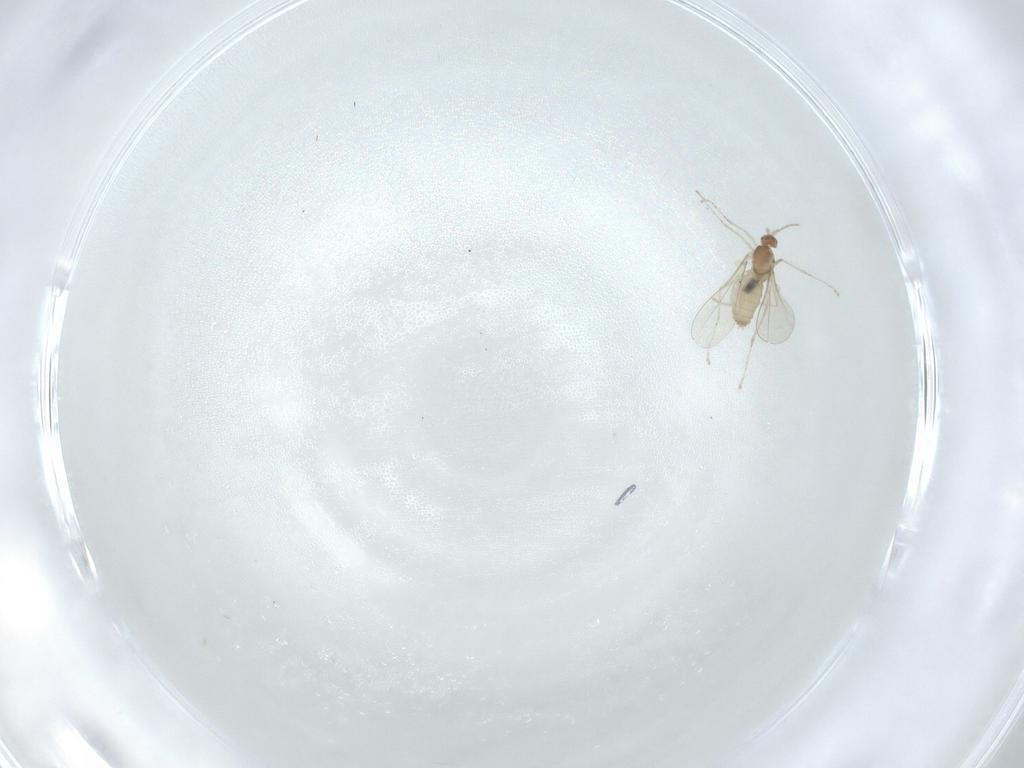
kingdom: Animalia
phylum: Arthropoda
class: Insecta
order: Diptera
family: Cecidomyiidae
